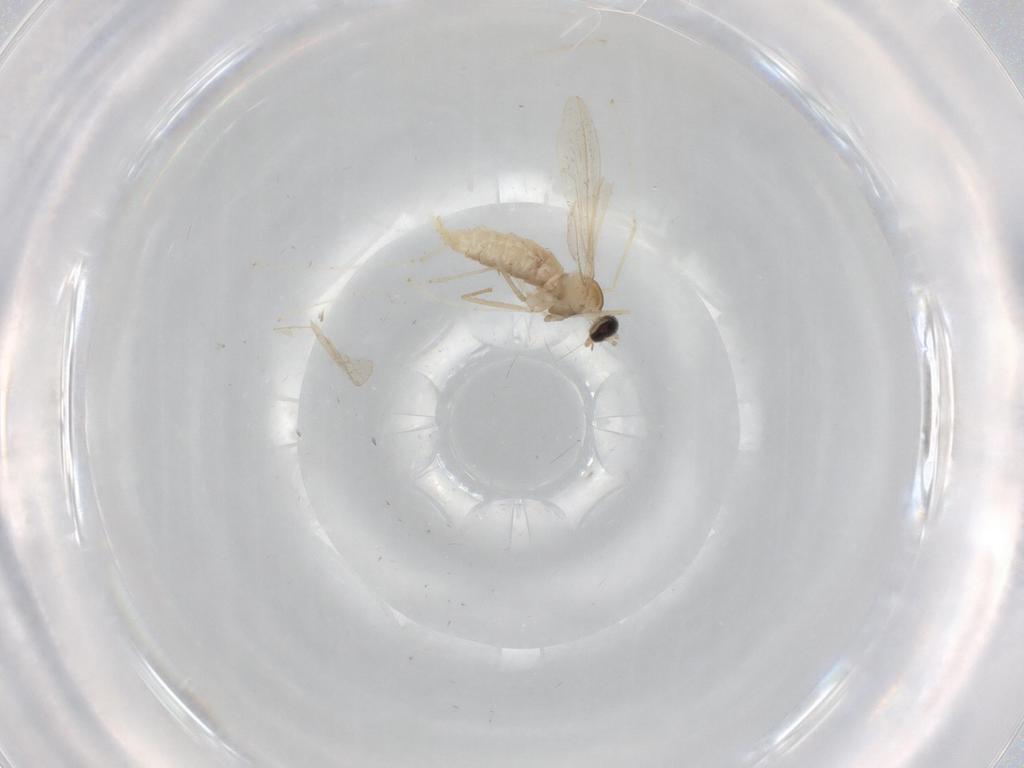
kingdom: Animalia
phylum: Arthropoda
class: Insecta
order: Diptera
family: Cecidomyiidae
